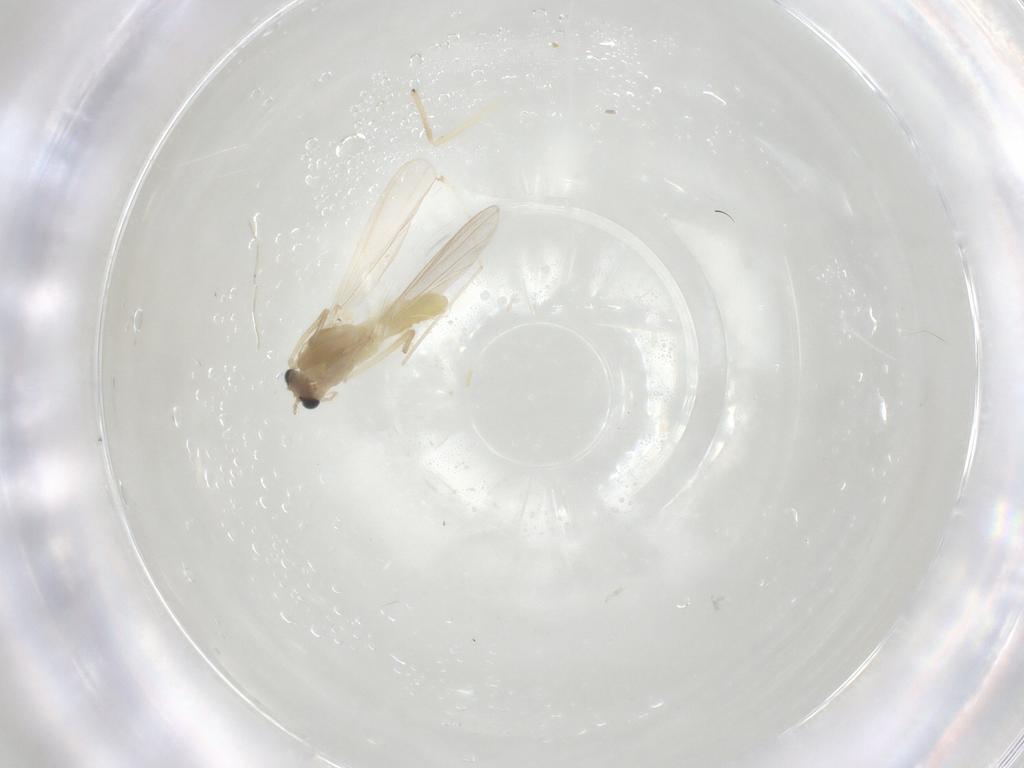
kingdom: Animalia
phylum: Arthropoda
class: Insecta
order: Diptera
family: Chironomidae
